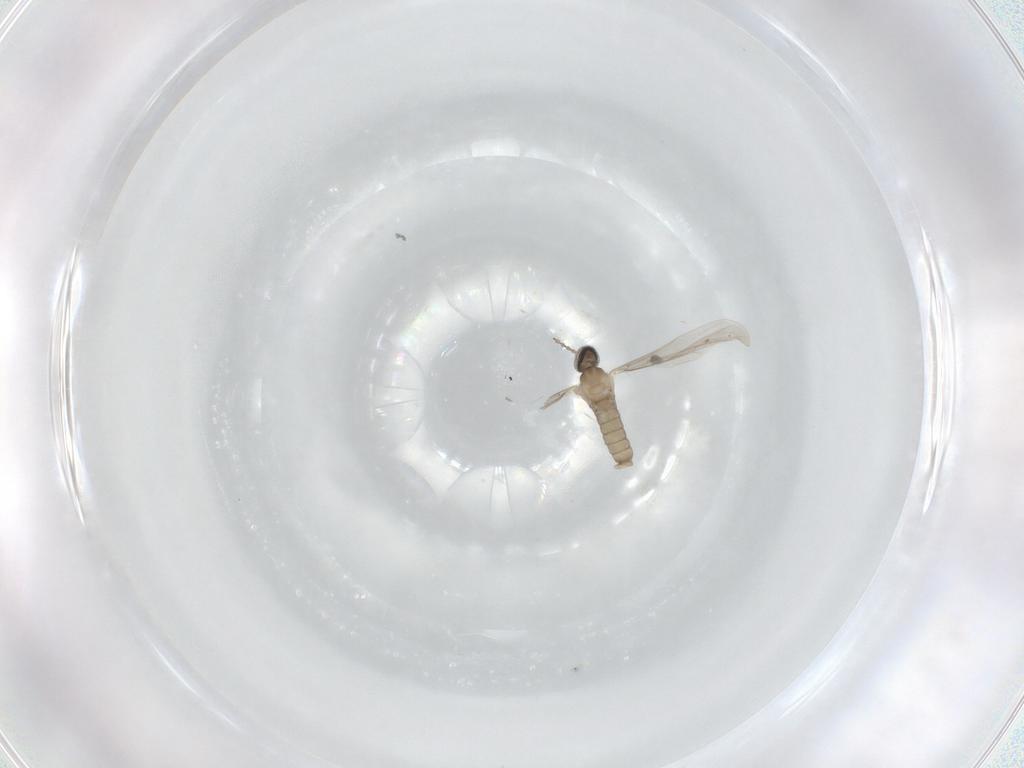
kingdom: Animalia
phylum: Arthropoda
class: Insecta
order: Diptera
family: Cecidomyiidae
